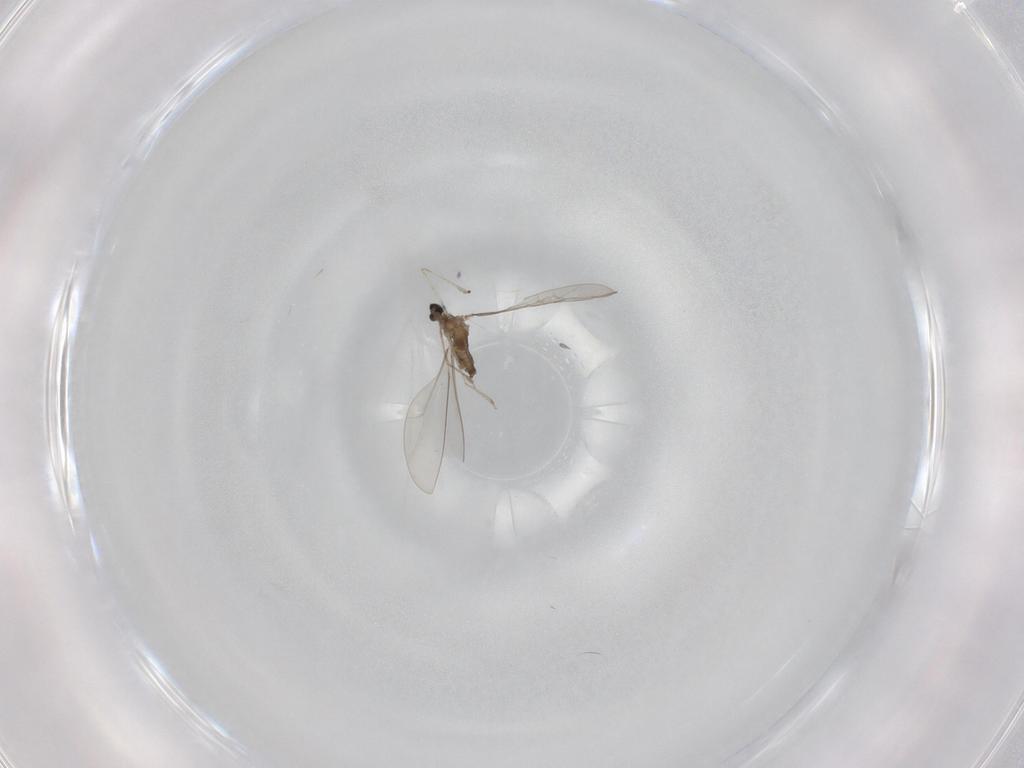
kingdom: Animalia
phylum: Arthropoda
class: Insecta
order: Diptera
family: Chironomidae
